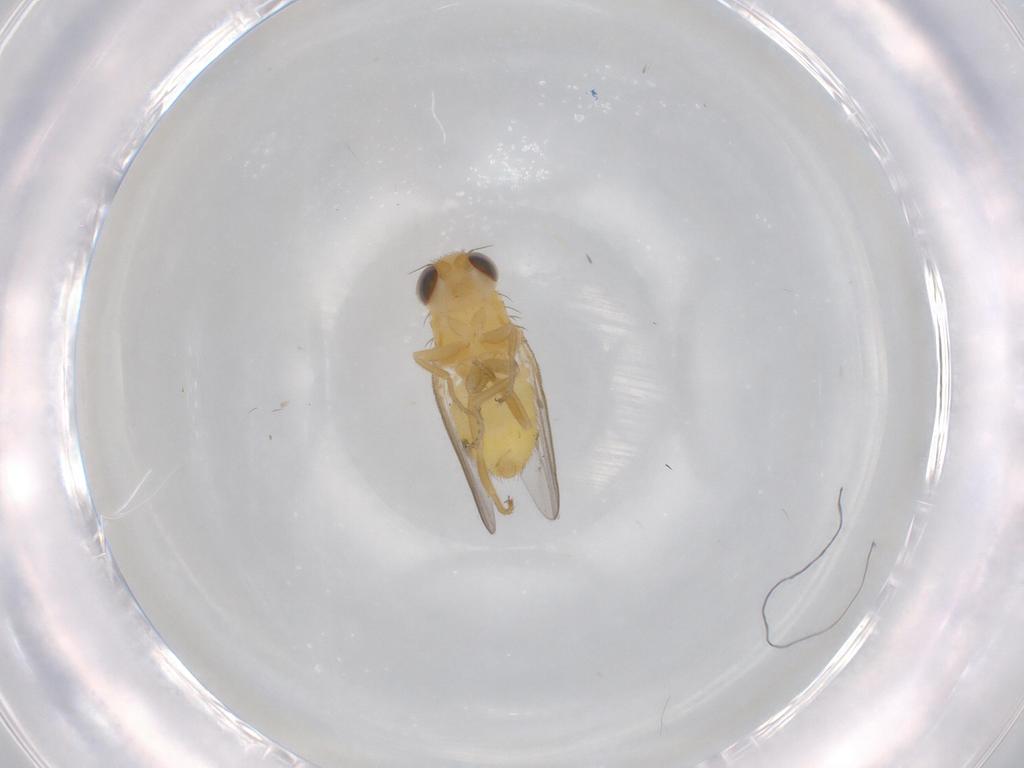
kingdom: Animalia
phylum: Arthropoda
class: Insecta
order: Diptera
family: Chloropidae
